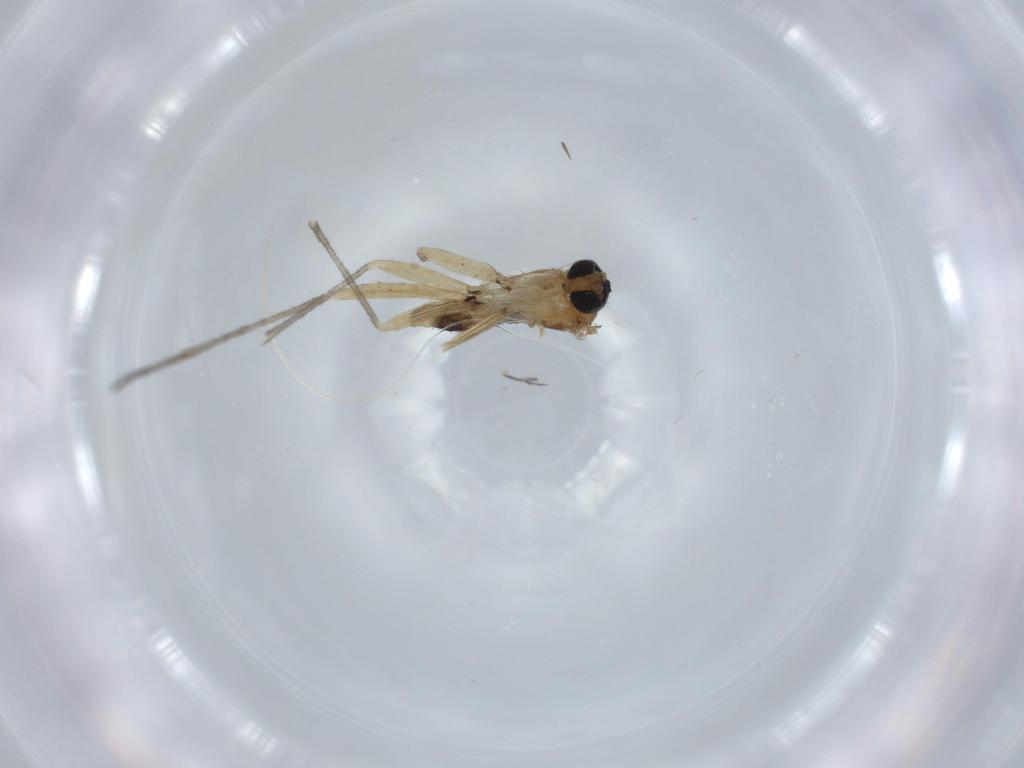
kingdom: Animalia
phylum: Arthropoda
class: Insecta
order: Diptera
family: Sciaridae
